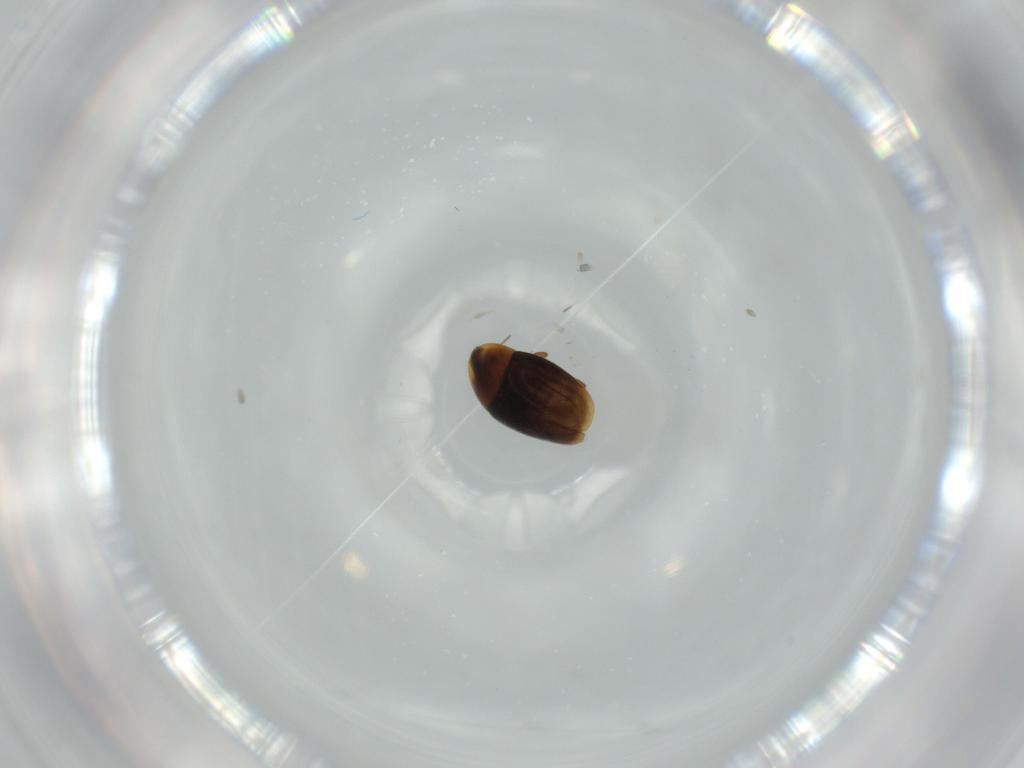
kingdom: Animalia
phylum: Arthropoda
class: Insecta
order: Coleoptera
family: Corylophidae
